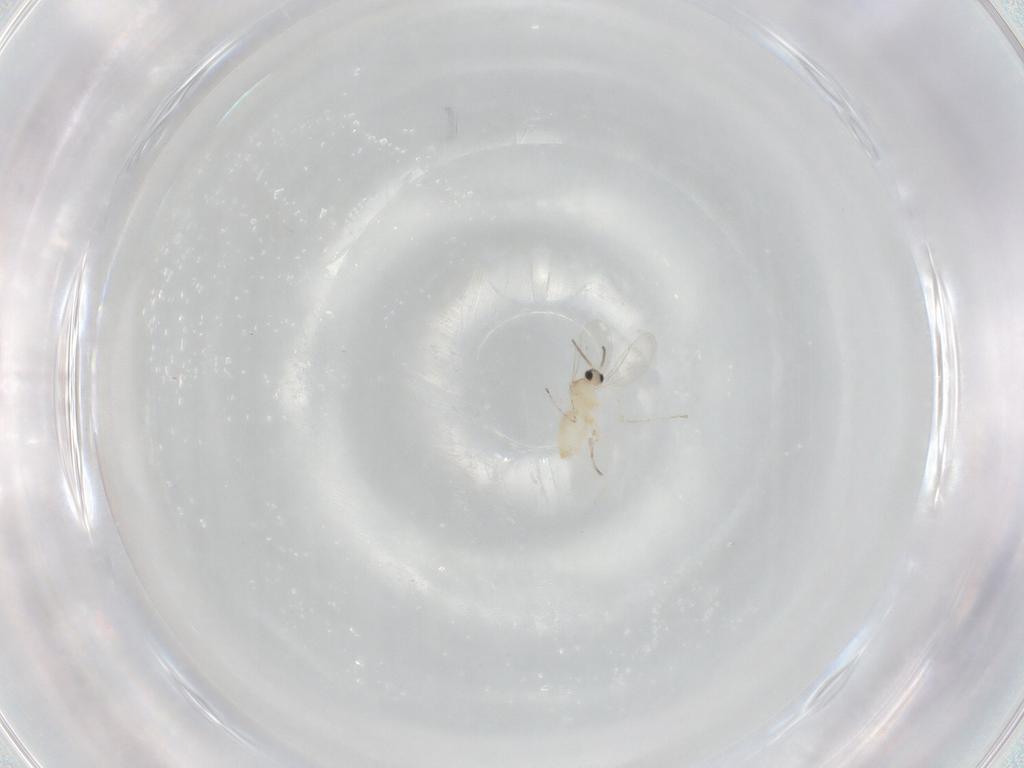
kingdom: Animalia
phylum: Arthropoda
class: Insecta
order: Diptera
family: Cecidomyiidae
